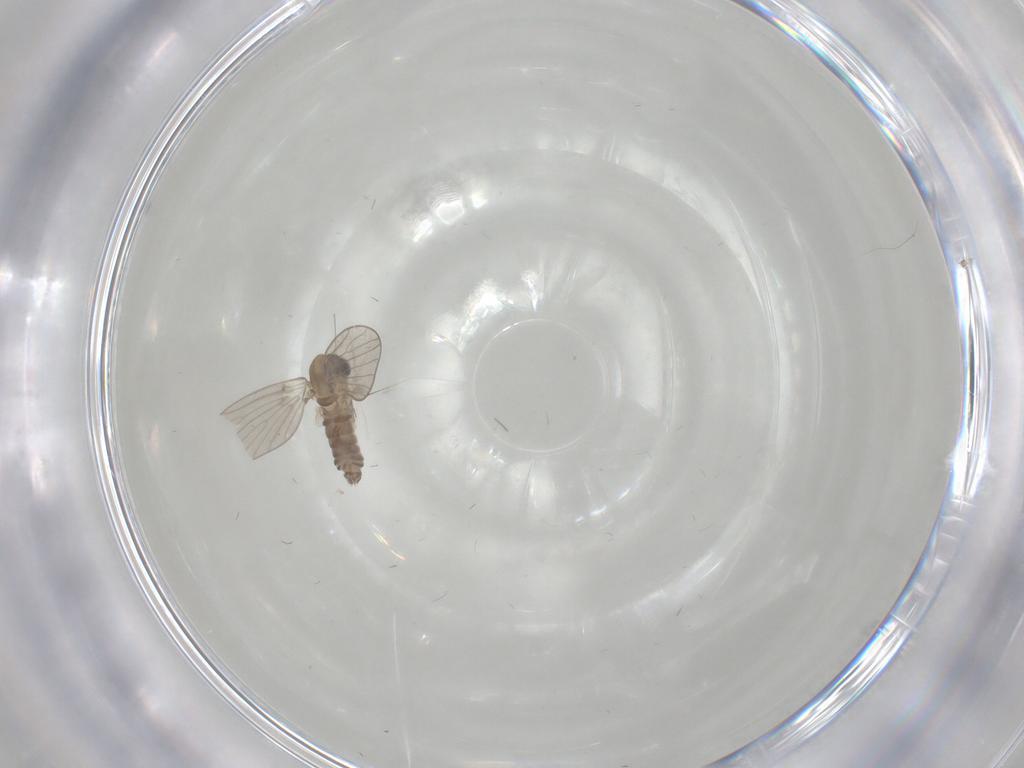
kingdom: Animalia
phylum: Arthropoda
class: Insecta
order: Diptera
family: Psychodidae
